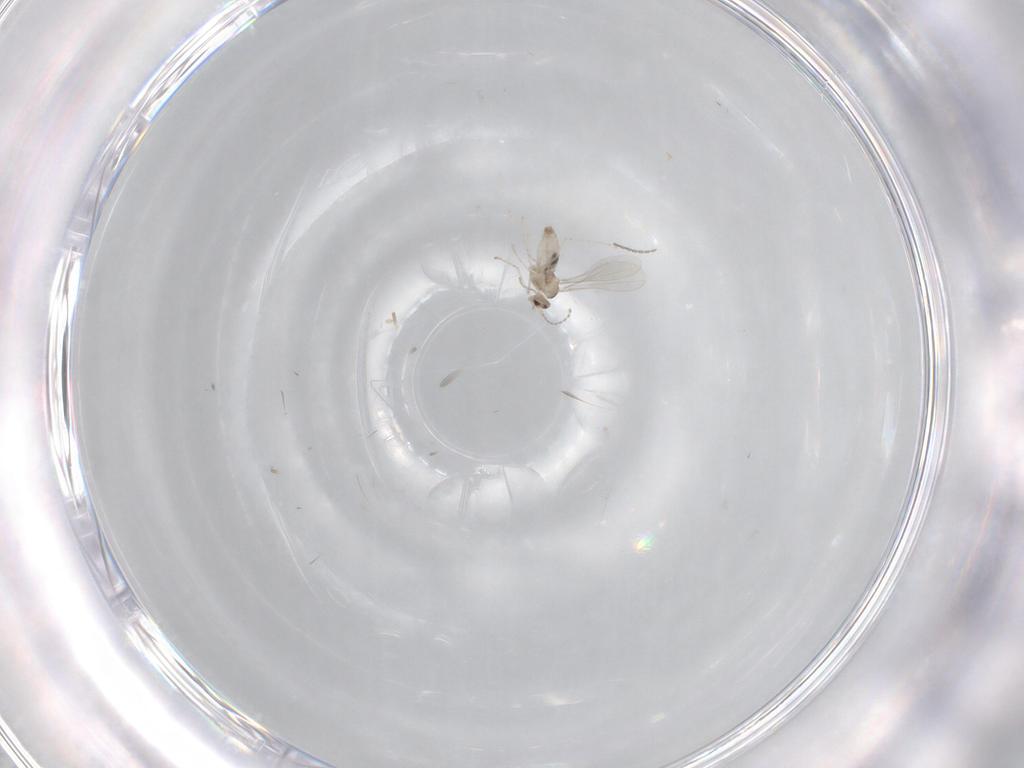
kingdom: Animalia
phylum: Arthropoda
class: Insecta
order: Diptera
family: Cecidomyiidae
